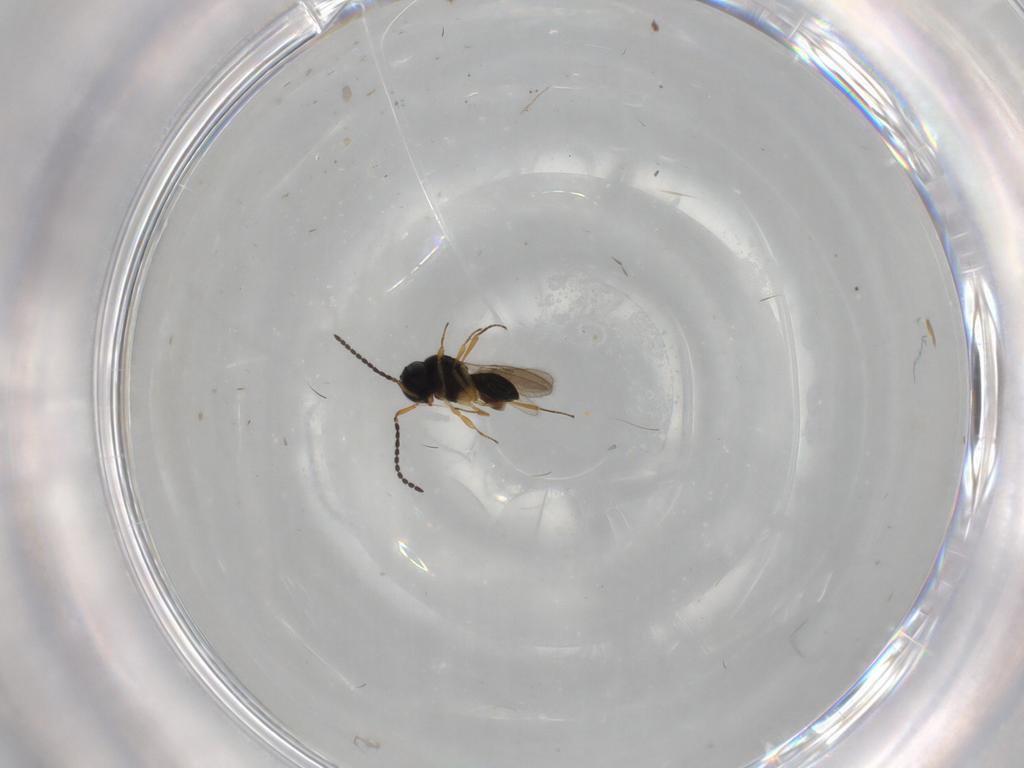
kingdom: Animalia
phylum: Arthropoda
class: Insecta
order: Hymenoptera
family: Scelionidae
